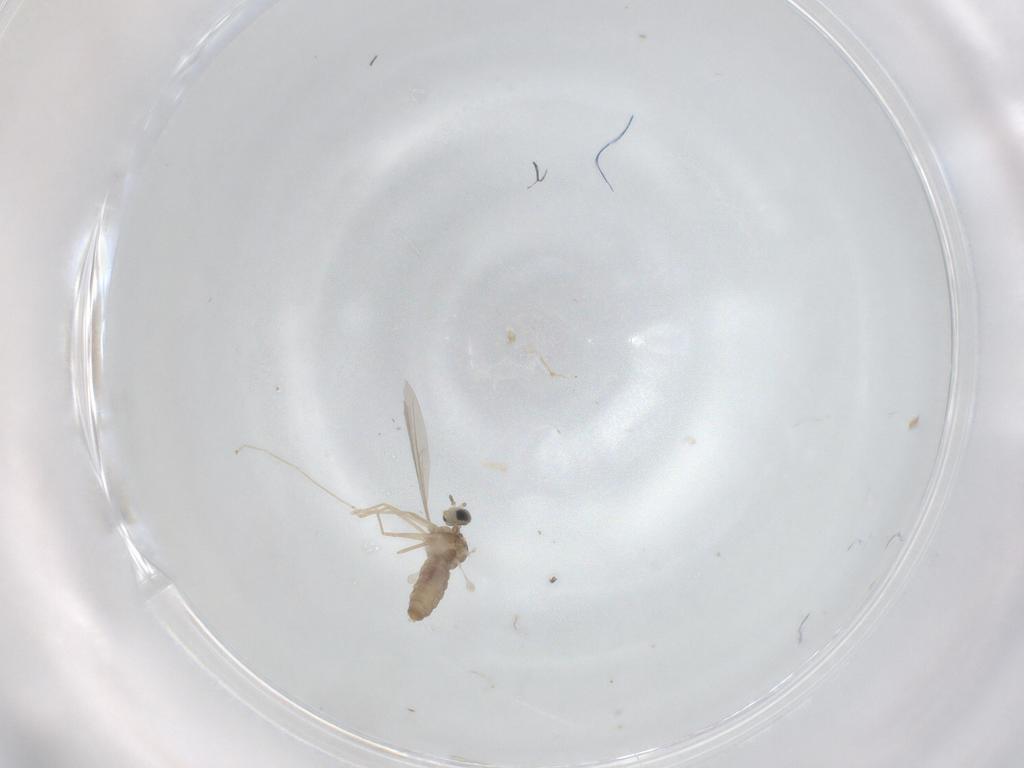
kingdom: Animalia
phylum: Arthropoda
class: Insecta
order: Diptera
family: Cecidomyiidae
